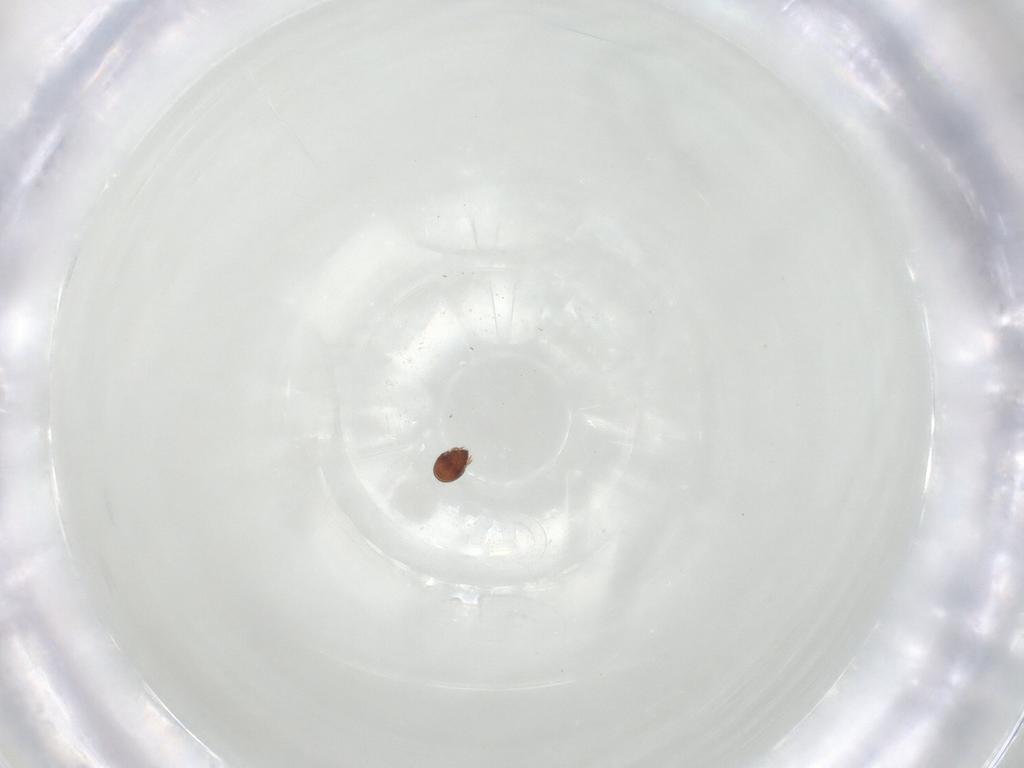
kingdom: Animalia
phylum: Arthropoda
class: Arachnida
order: Sarcoptiformes
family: Ceratoppiidae
